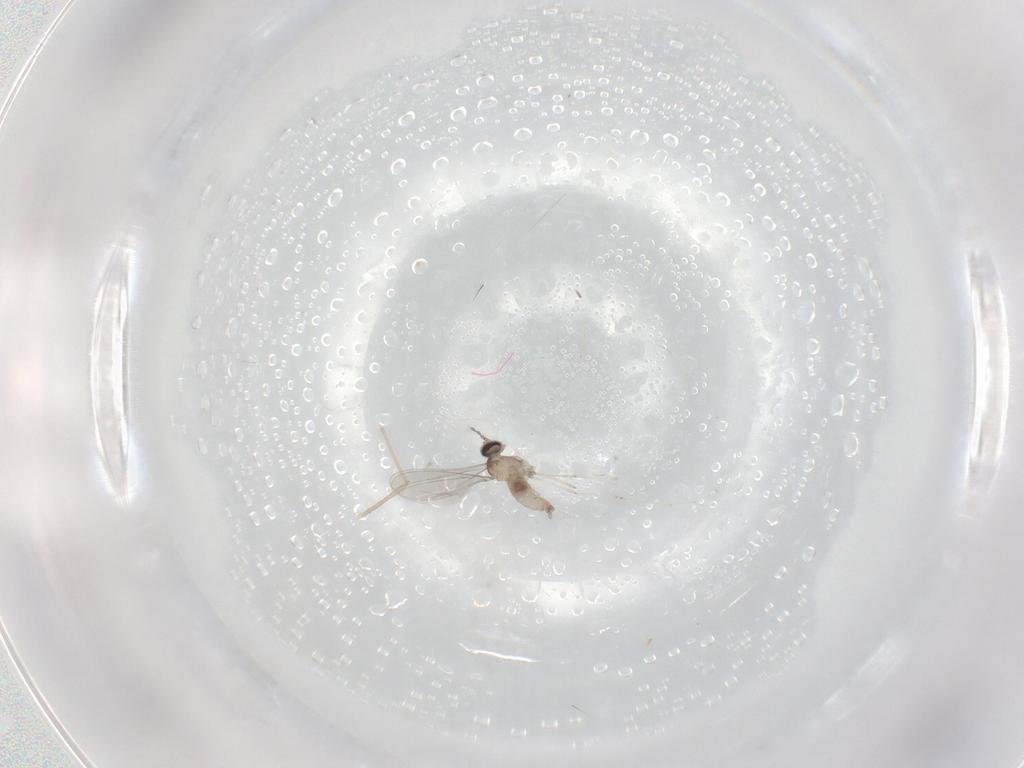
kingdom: Animalia
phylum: Arthropoda
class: Insecta
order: Diptera
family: Cecidomyiidae
